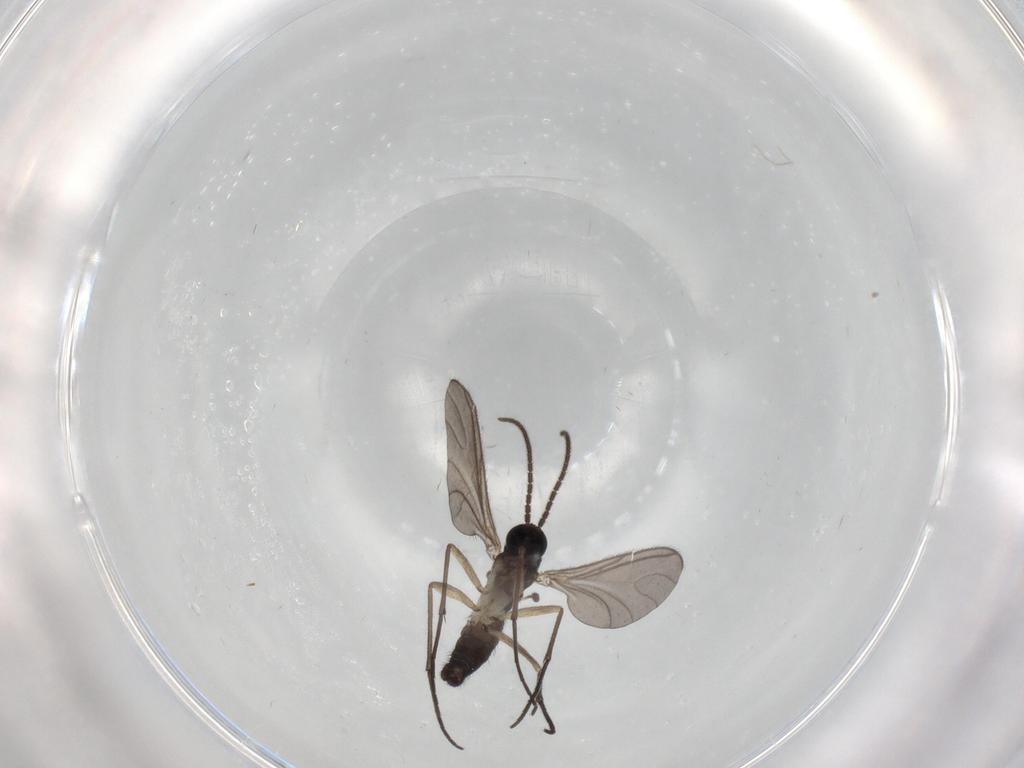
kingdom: Animalia
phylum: Arthropoda
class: Insecta
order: Diptera
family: Sciaridae
